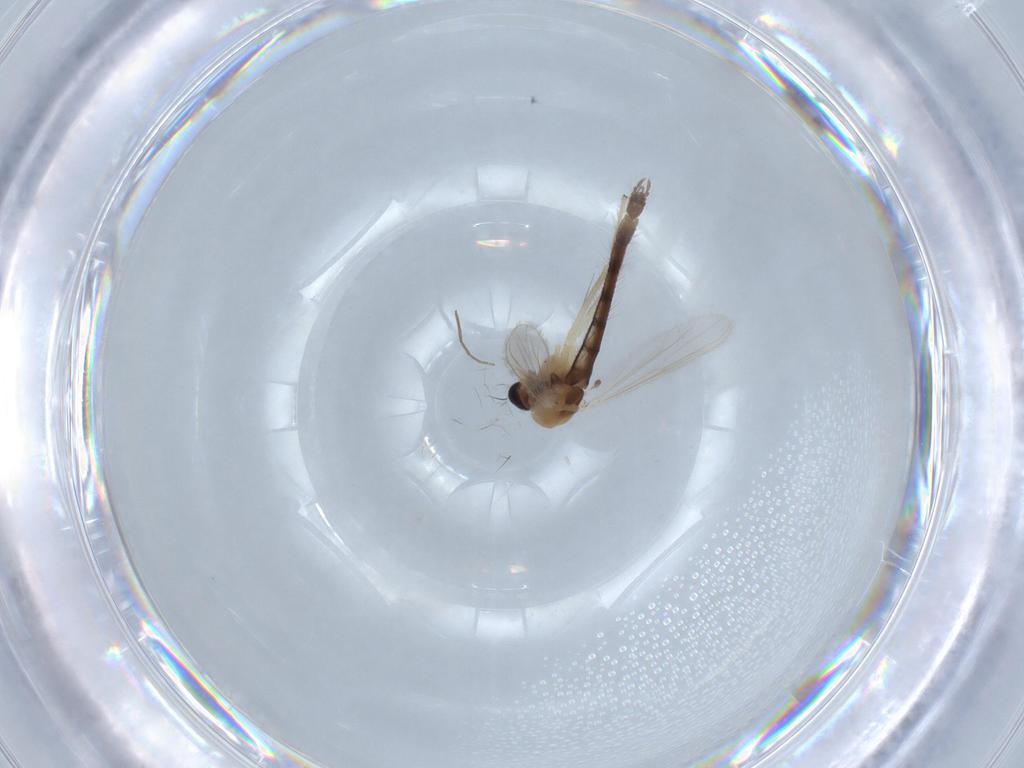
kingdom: Animalia
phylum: Arthropoda
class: Insecta
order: Diptera
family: Chironomidae
